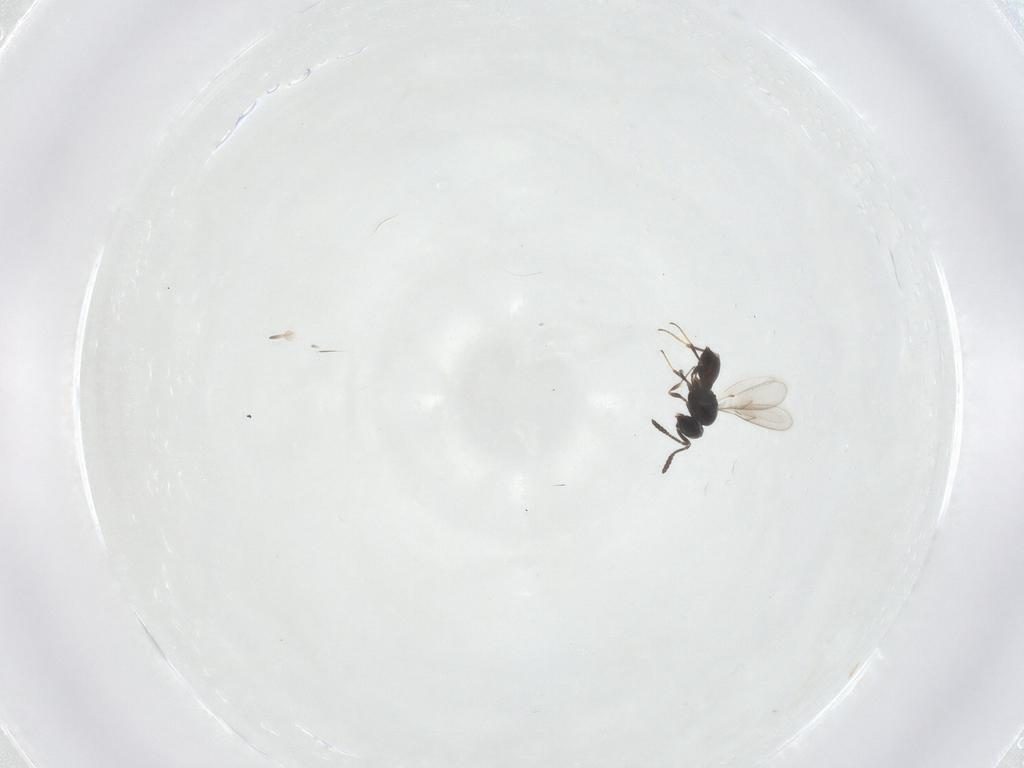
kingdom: Animalia
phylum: Arthropoda
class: Insecta
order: Hymenoptera
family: Scelionidae
